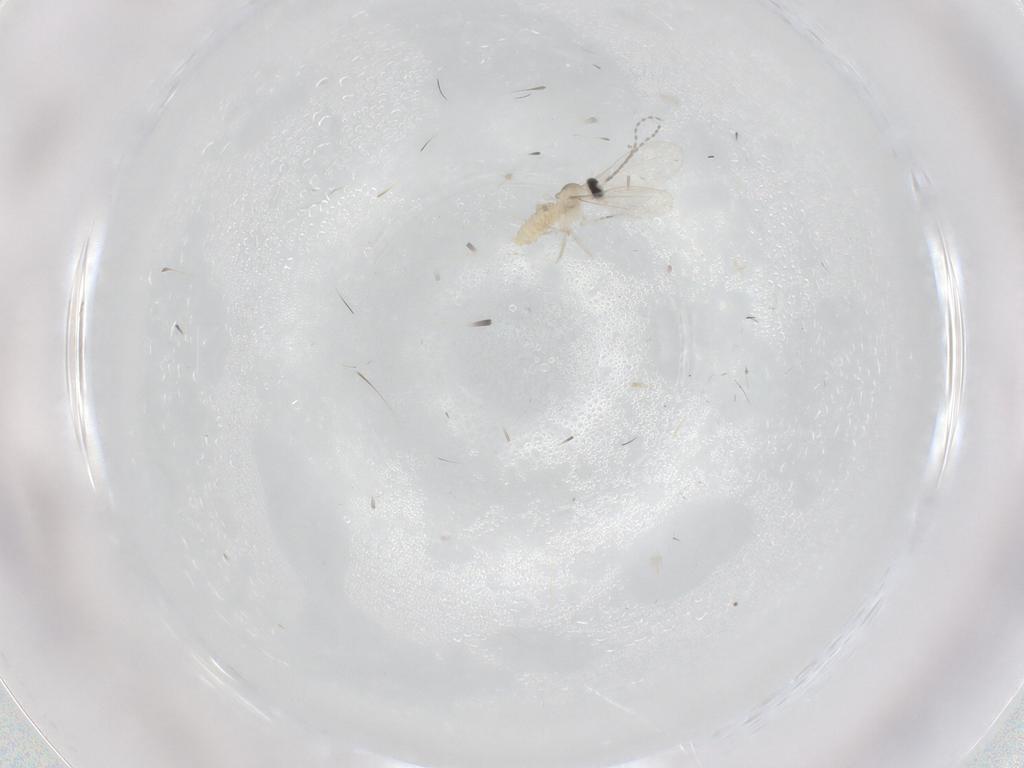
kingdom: Animalia
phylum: Arthropoda
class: Insecta
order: Diptera
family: Mycetophilidae
